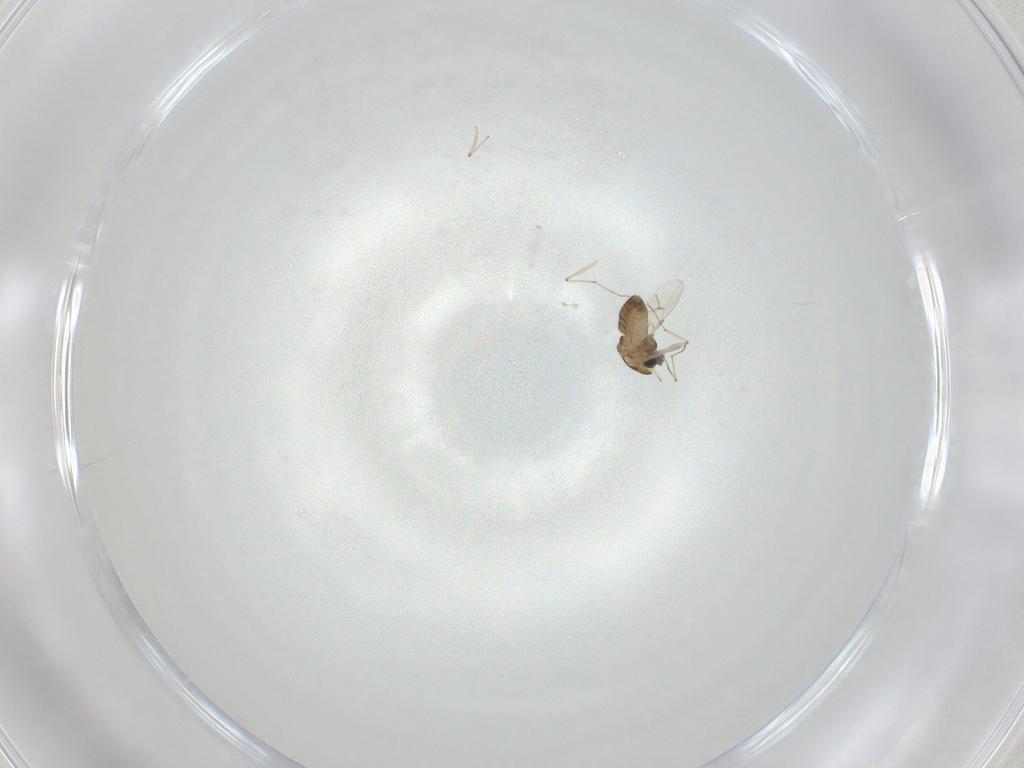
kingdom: Animalia
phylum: Arthropoda
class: Insecta
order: Diptera
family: Chironomidae
